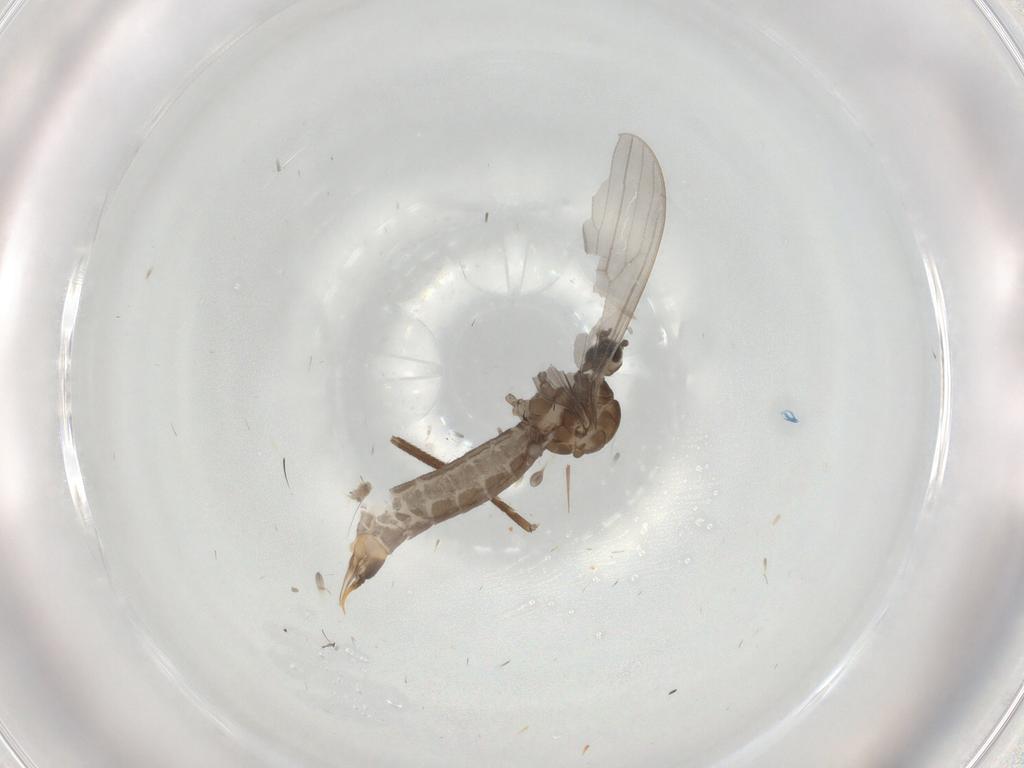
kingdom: Animalia
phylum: Arthropoda
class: Insecta
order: Diptera
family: Limoniidae
